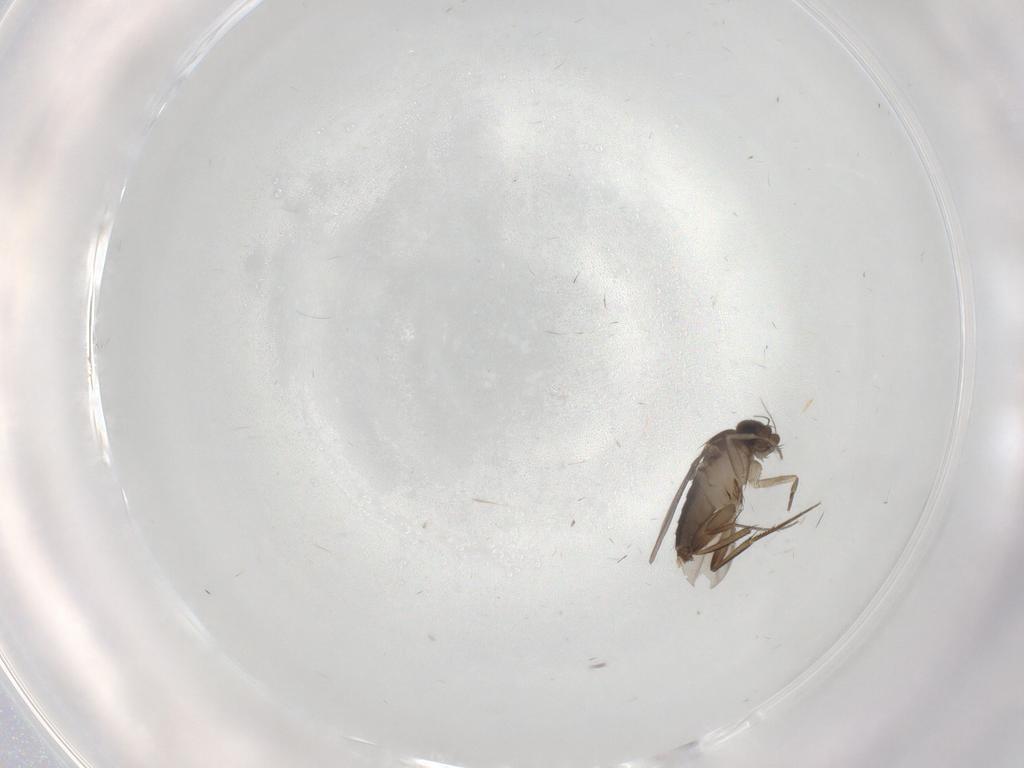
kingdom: Animalia
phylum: Arthropoda
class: Insecta
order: Diptera
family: Phoridae
